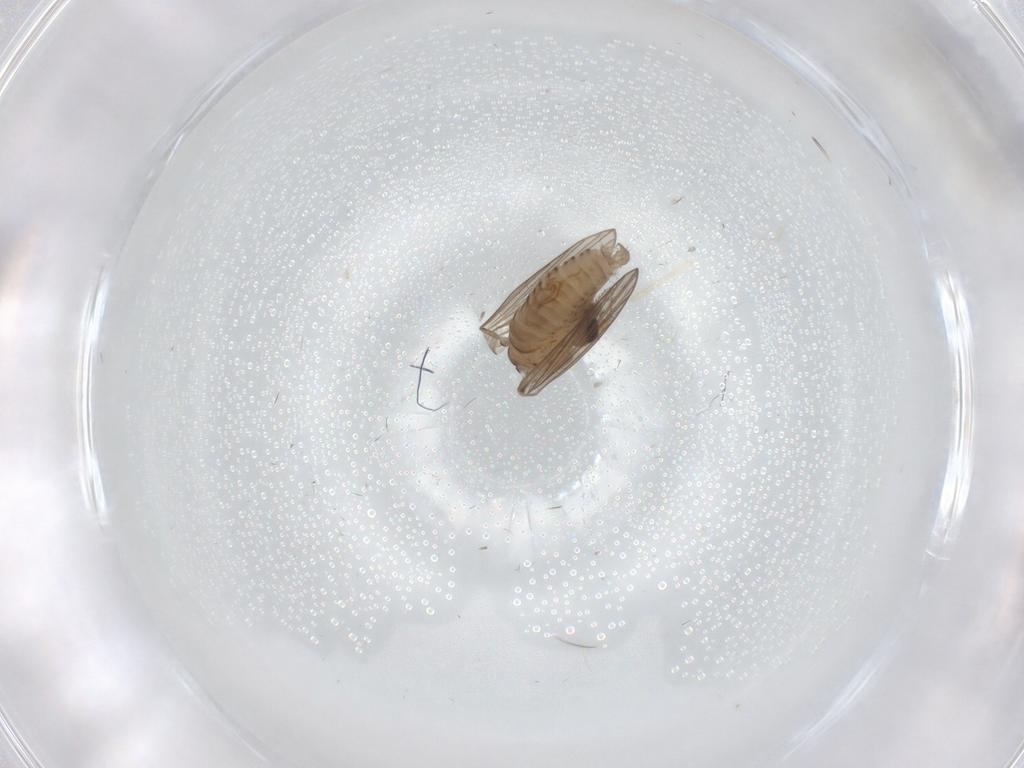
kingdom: Animalia
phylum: Arthropoda
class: Insecta
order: Diptera
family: Psychodidae
